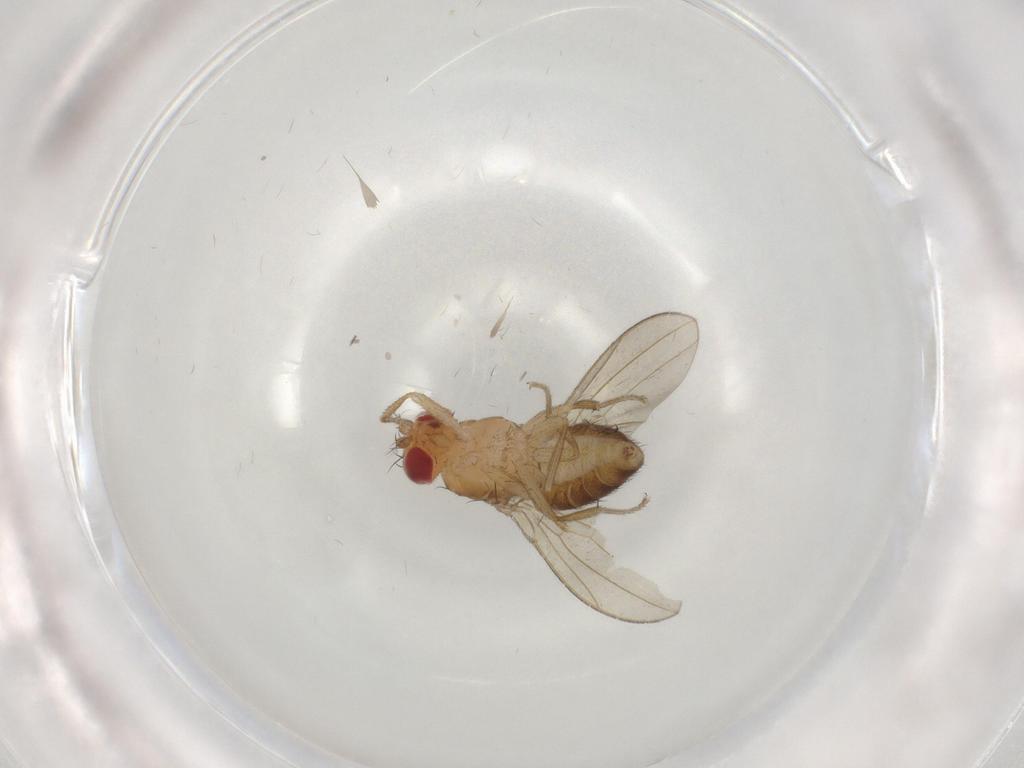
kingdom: Animalia
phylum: Arthropoda
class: Insecta
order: Diptera
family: Drosophilidae
